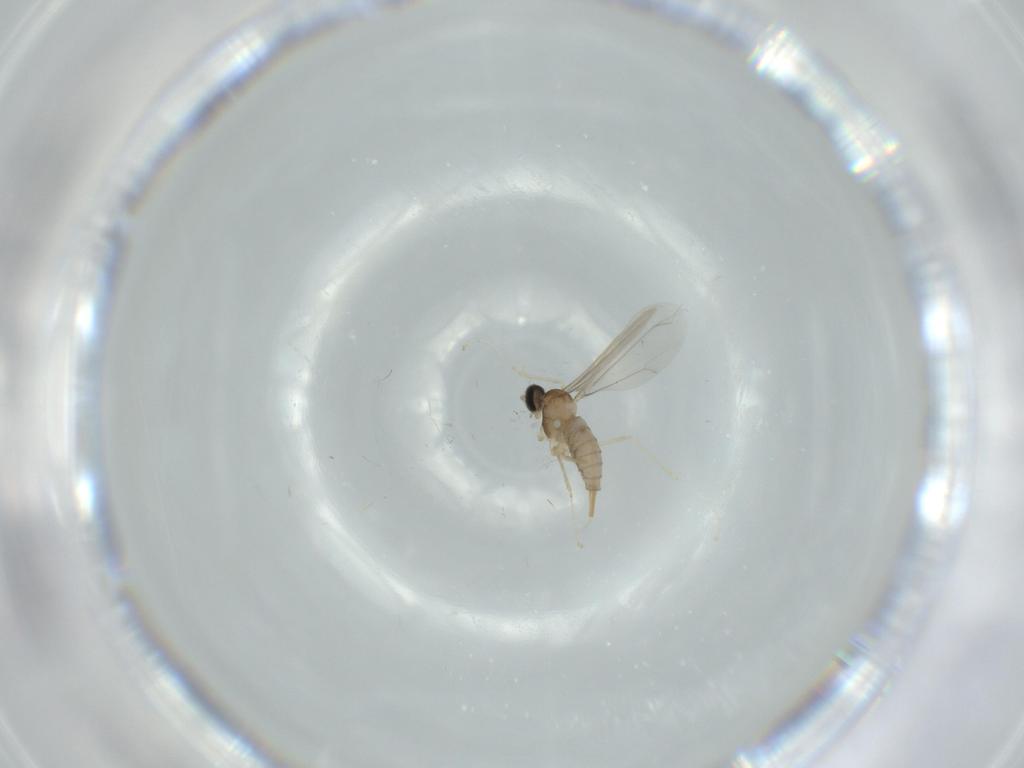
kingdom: Animalia
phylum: Arthropoda
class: Insecta
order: Diptera
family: Cecidomyiidae
